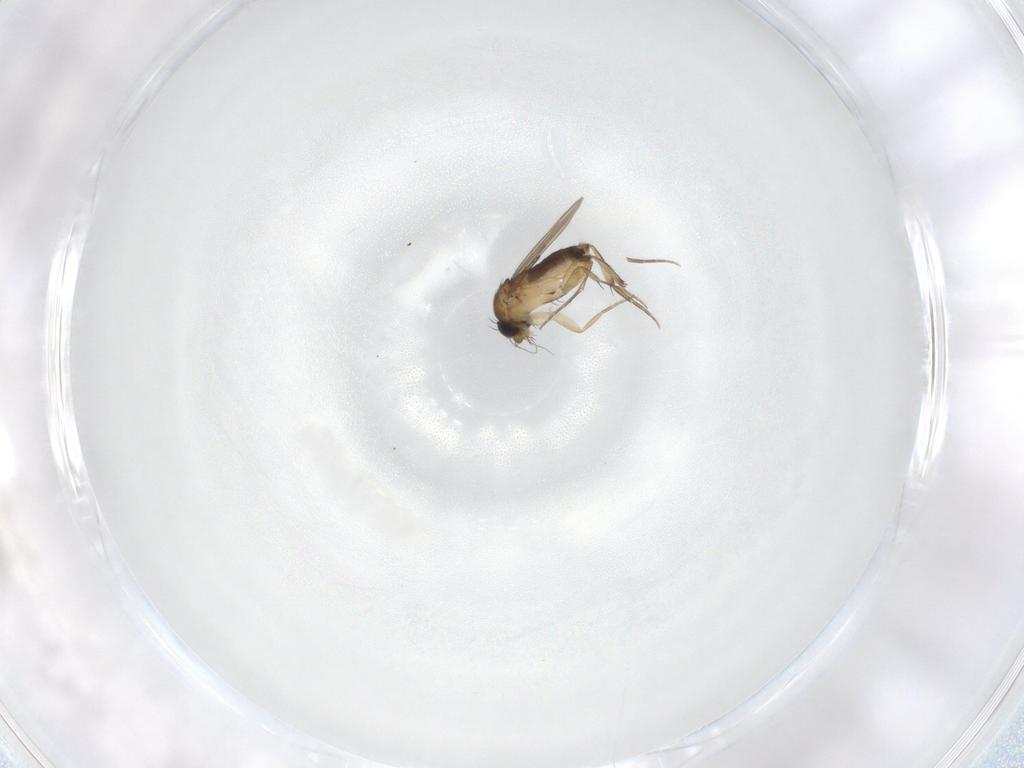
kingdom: Animalia
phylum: Arthropoda
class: Insecta
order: Diptera
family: Phoridae
